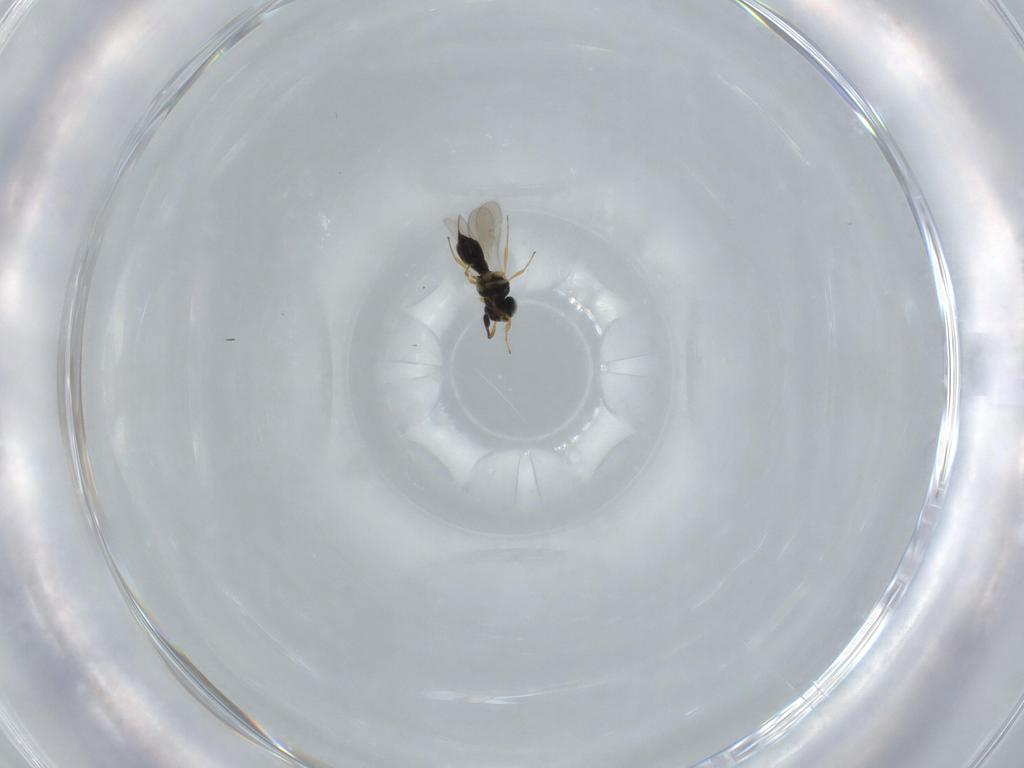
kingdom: Animalia
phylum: Arthropoda
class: Insecta
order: Hymenoptera
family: Scelionidae
